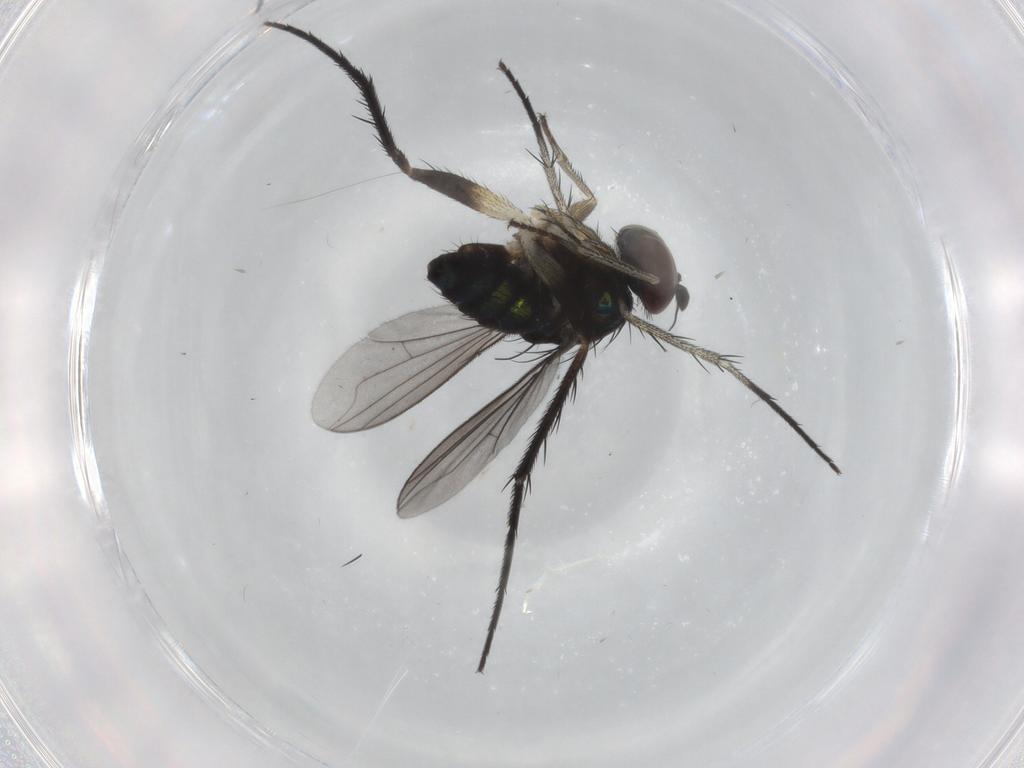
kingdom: Animalia
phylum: Arthropoda
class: Insecta
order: Diptera
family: Dolichopodidae
